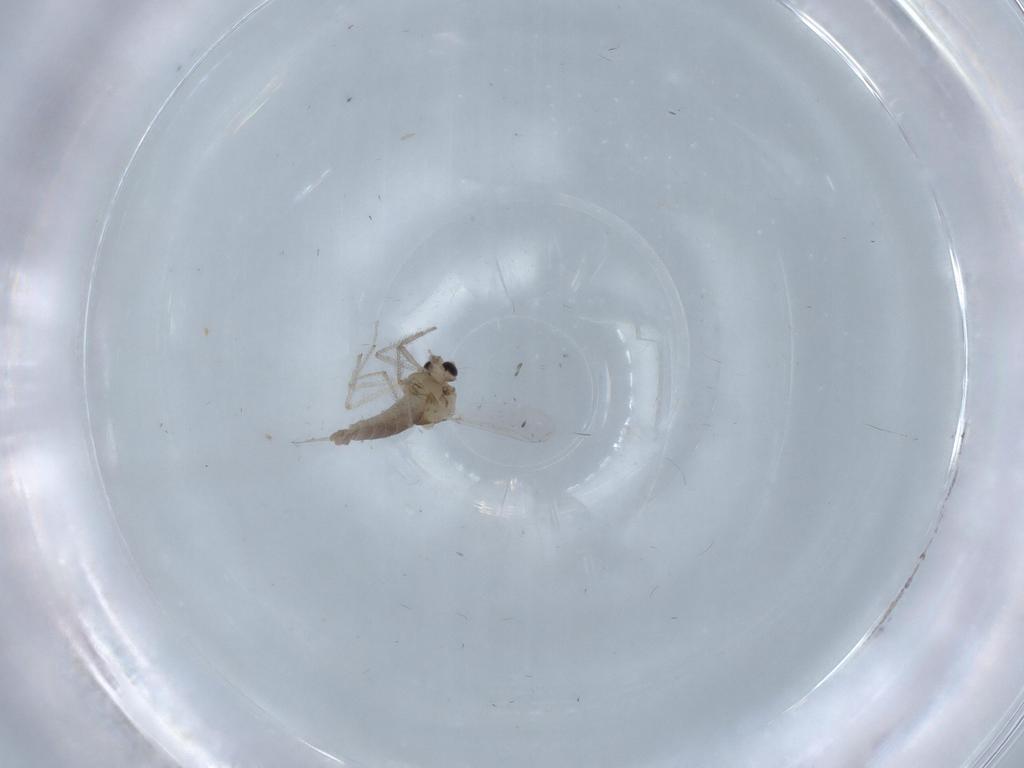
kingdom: Animalia
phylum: Arthropoda
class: Insecta
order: Diptera
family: Chironomidae
